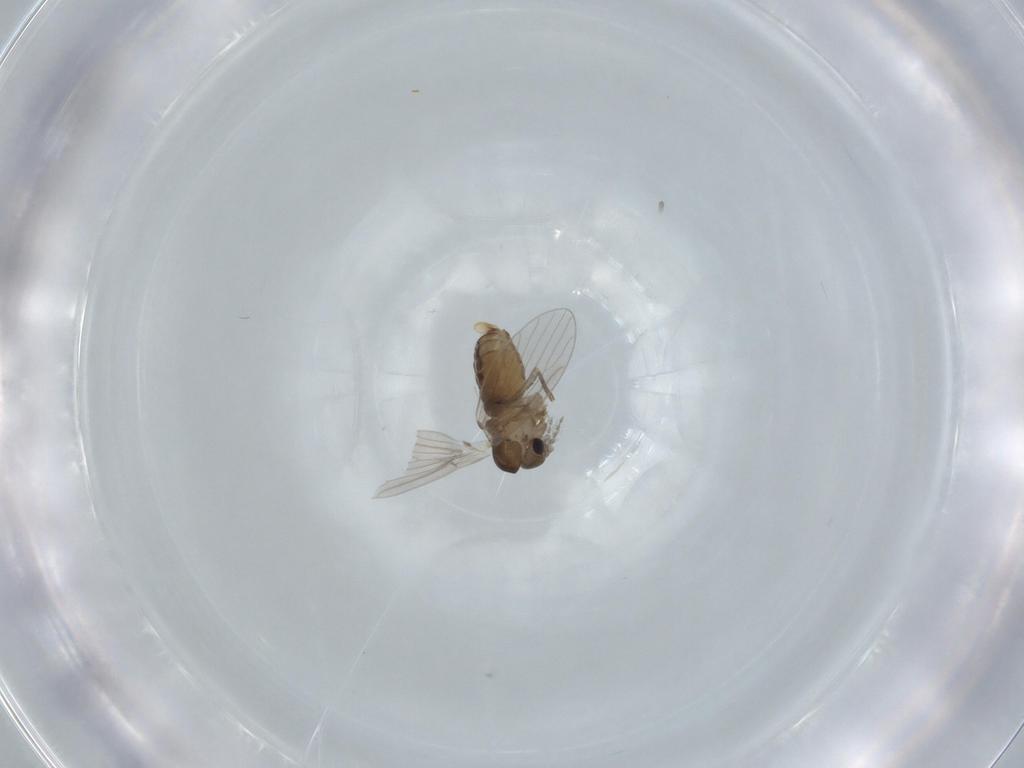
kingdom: Animalia
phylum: Arthropoda
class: Insecta
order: Diptera
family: Psychodidae
